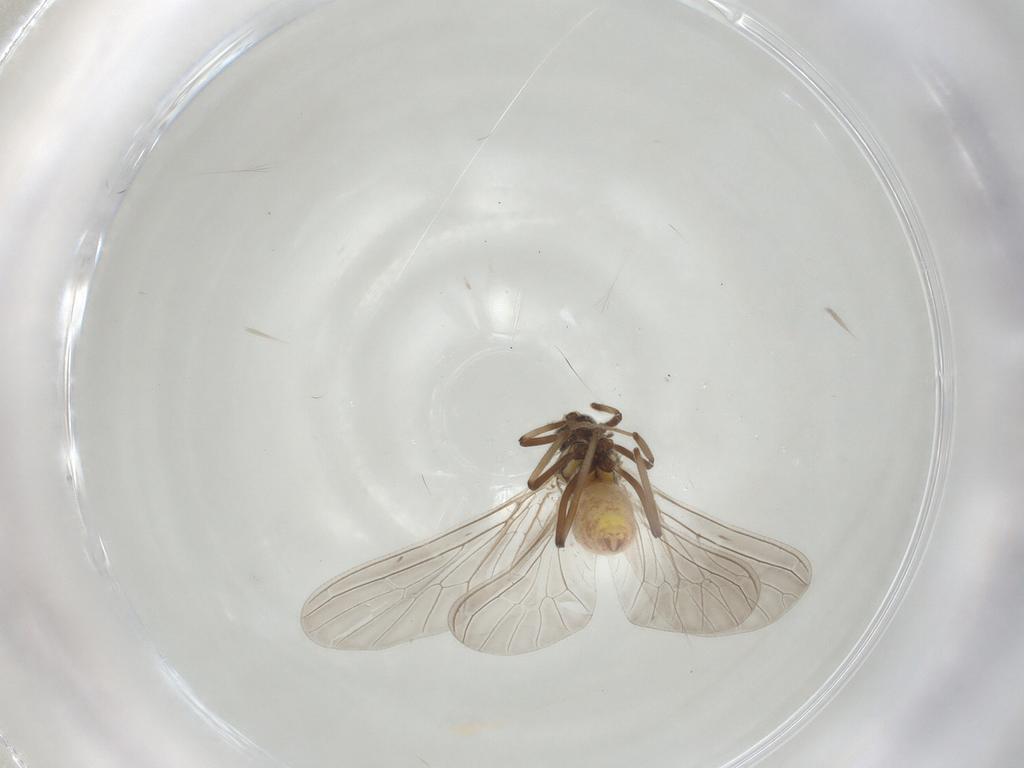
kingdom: Animalia
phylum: Arthropoda
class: Insecta
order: Neuroptera
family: Coniopterygidae
